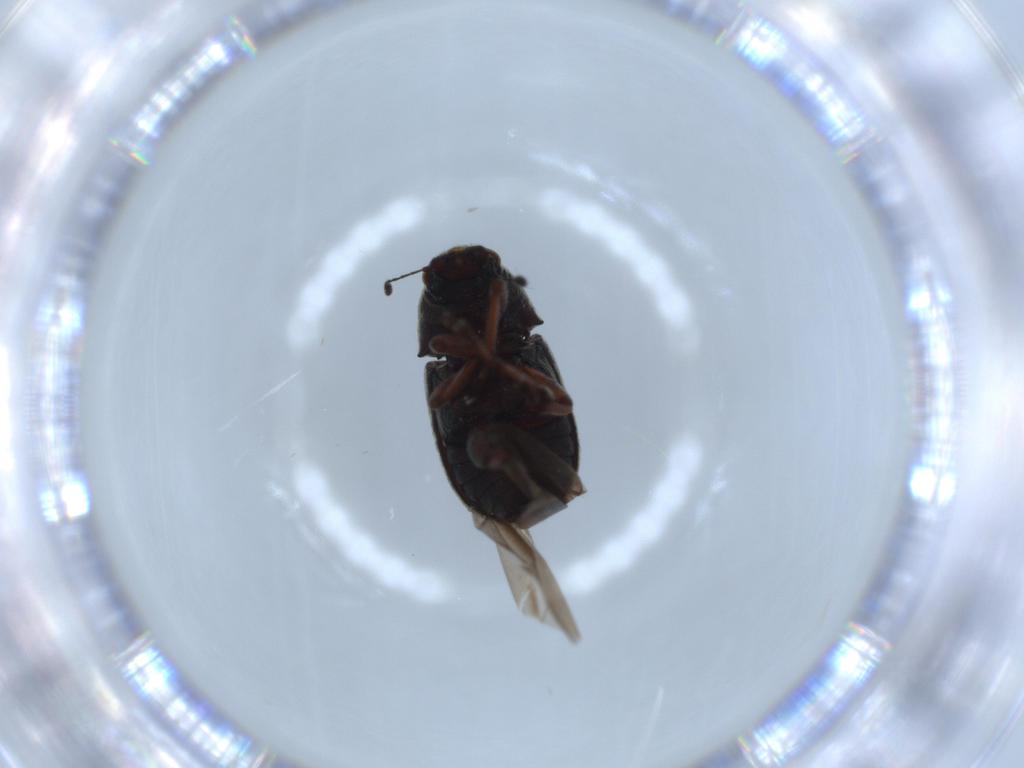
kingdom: Animalia
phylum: Arthropoda
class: Insecta
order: Coleoptera
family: Anthribidae
